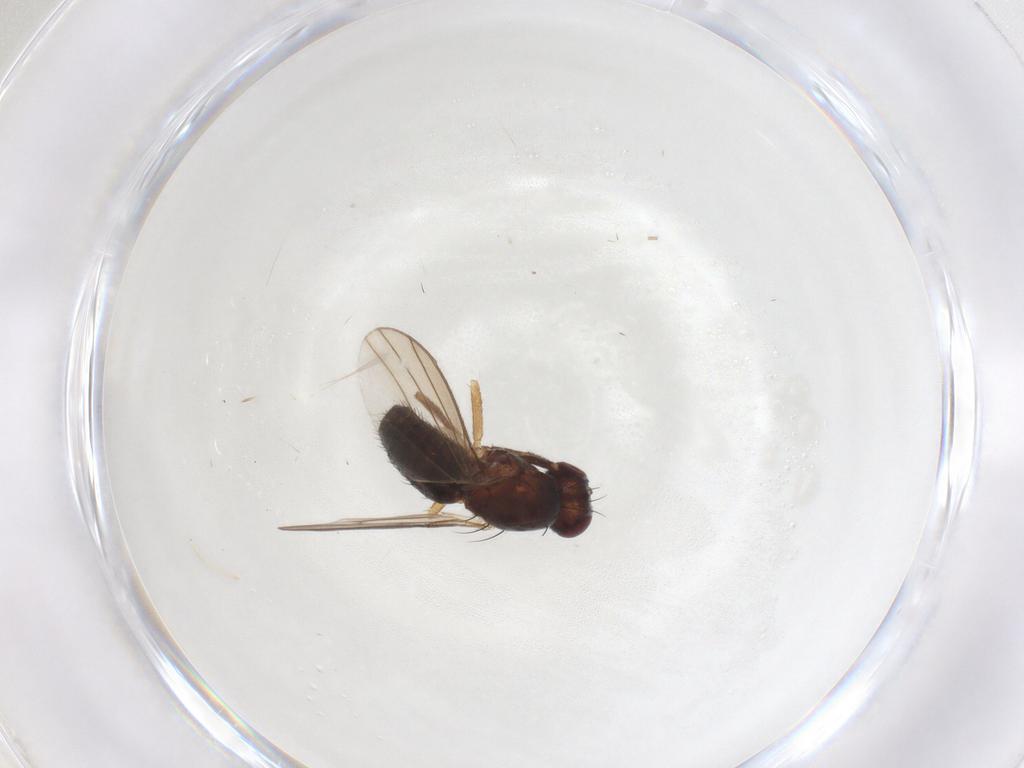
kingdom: Animalia
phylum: Arthropoda
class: Insecta
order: Diptera
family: Heleomyzidae
